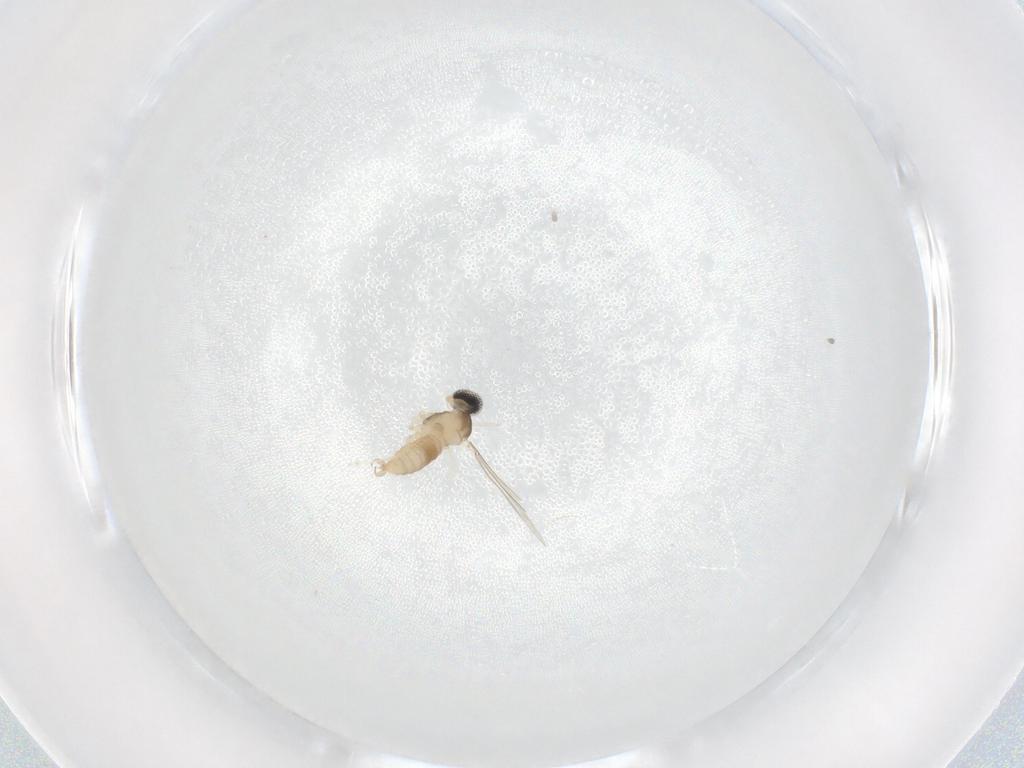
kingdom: Animalia
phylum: Arthropoda
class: Insecta
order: Diptera
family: Cecidomyiidae
